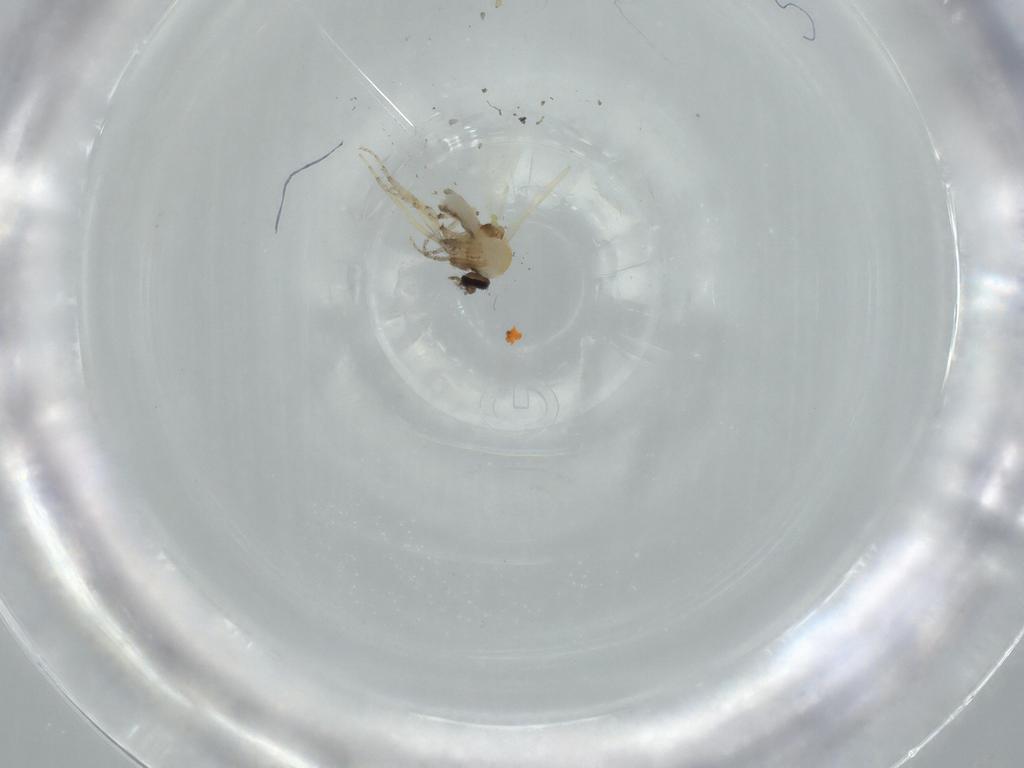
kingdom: Animalia
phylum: Arthropoda
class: Insecta
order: Diptera
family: Ceratopogonidae
